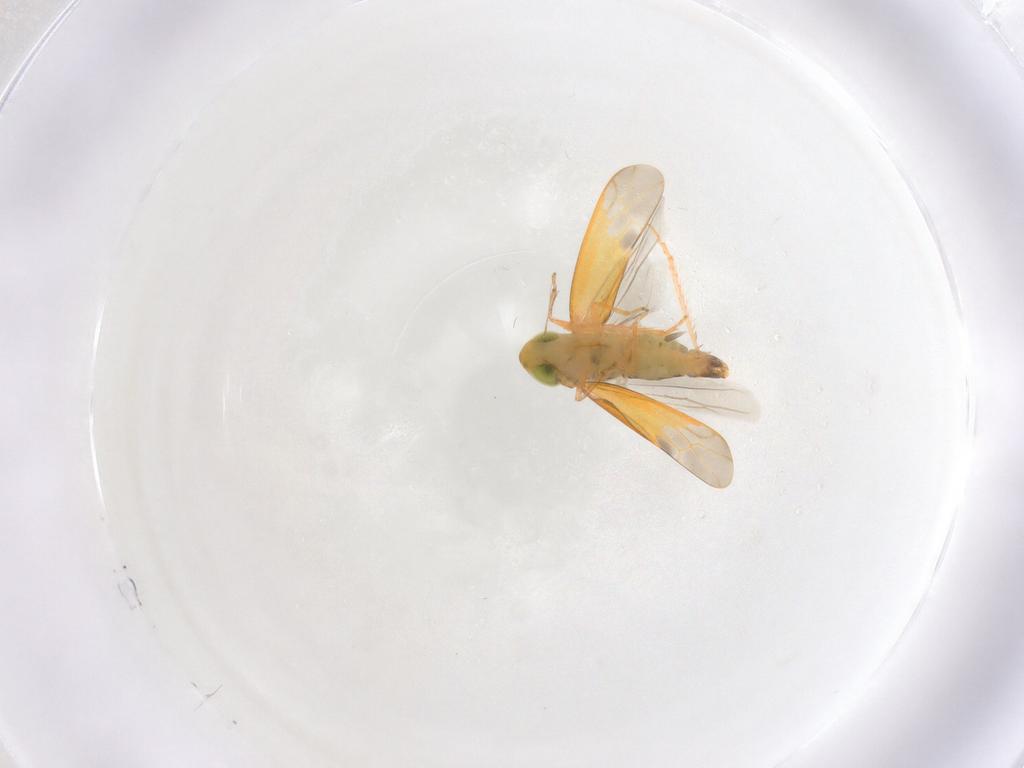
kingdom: Animalia
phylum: Arthropoda
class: Insecta
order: Hemiptera
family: Cicadellidae
